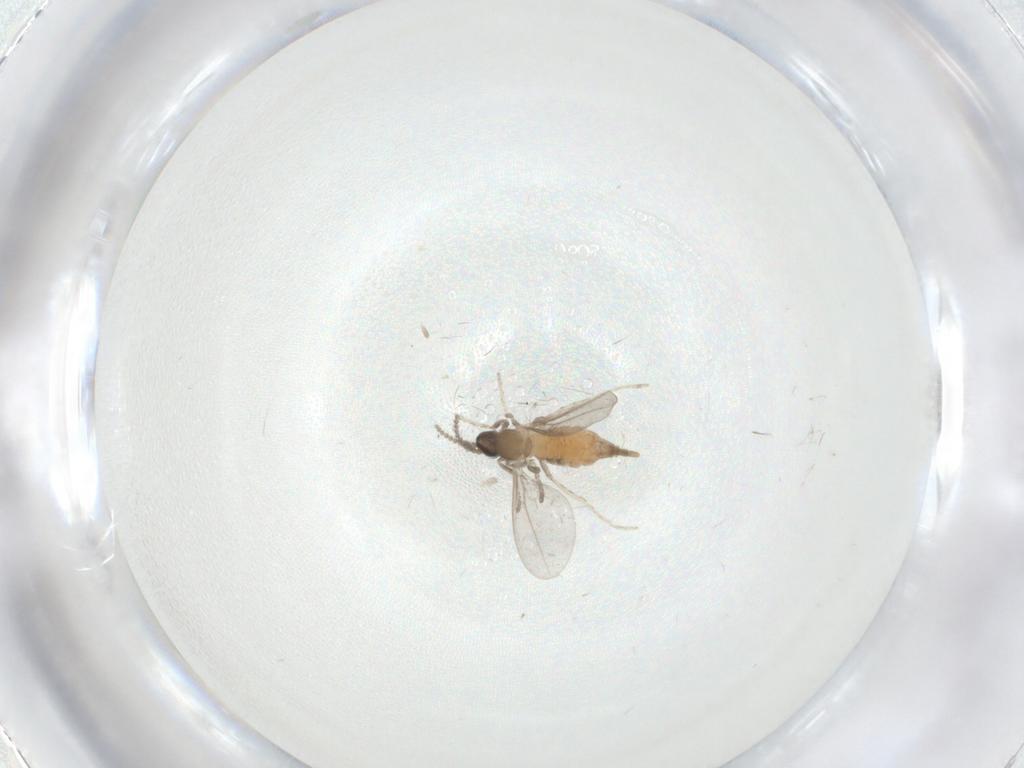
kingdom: Animalia
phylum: Arthropoda
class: Insecta
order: Diptera
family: Cecidomyiidae
